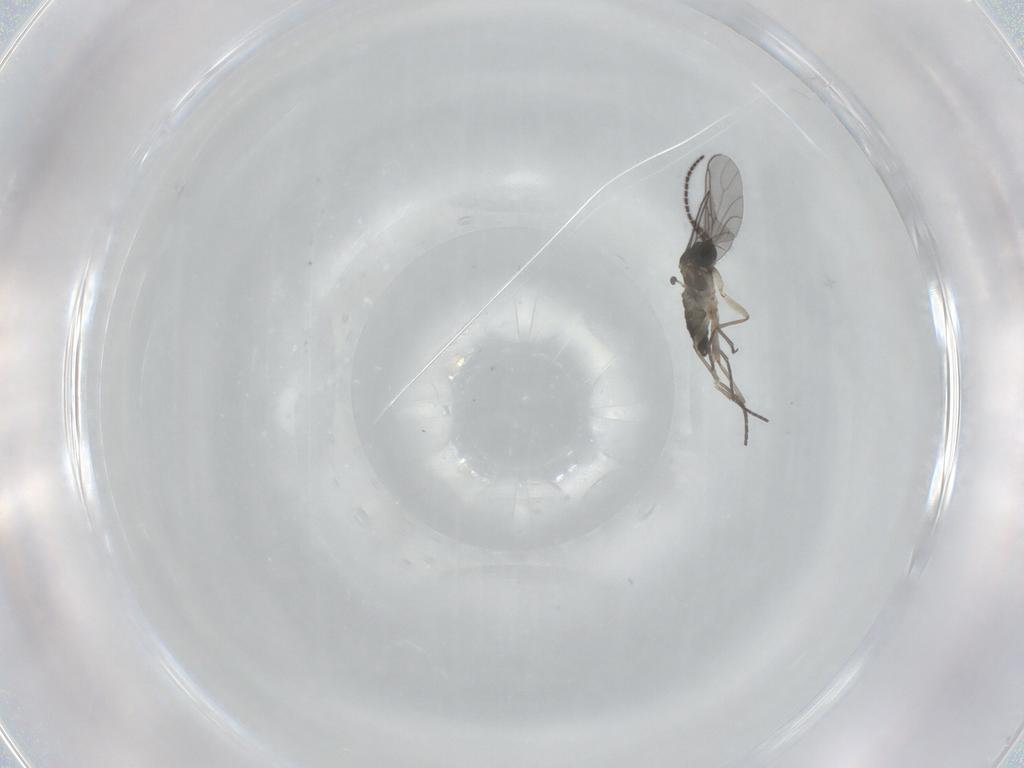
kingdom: Animalia
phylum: Arthropoda
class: Insecta
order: Diptera
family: Sciaridae
